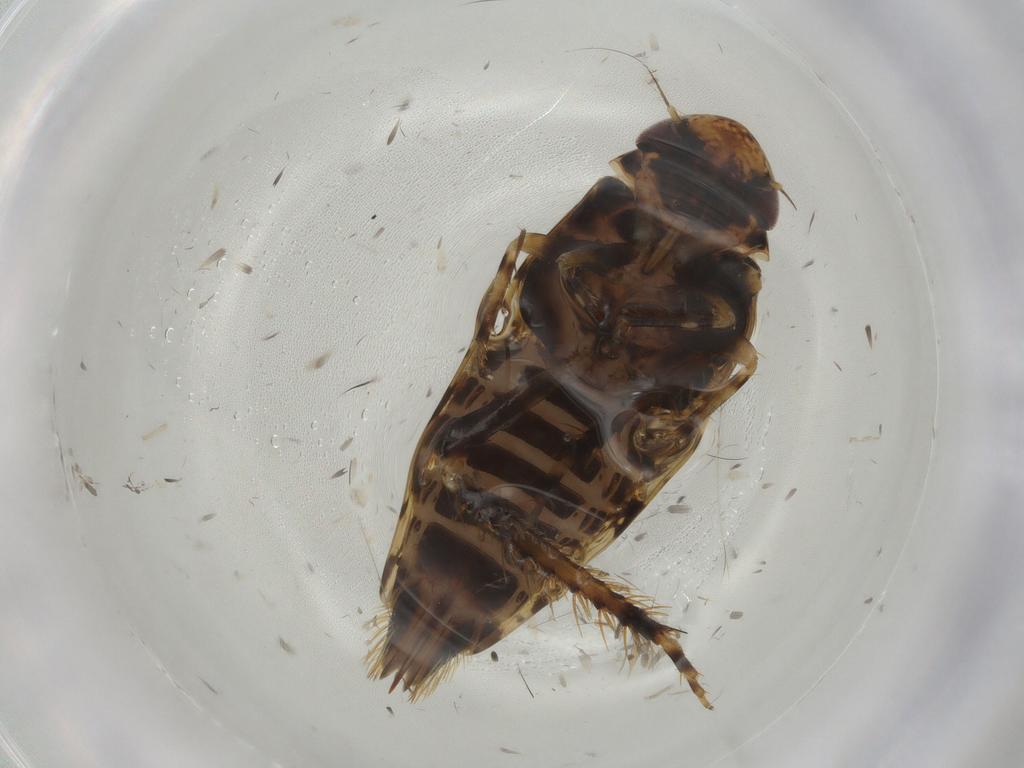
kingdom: Animalia
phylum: Arthropoda
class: Insecta
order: Hemiptera
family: Cicadellidae
